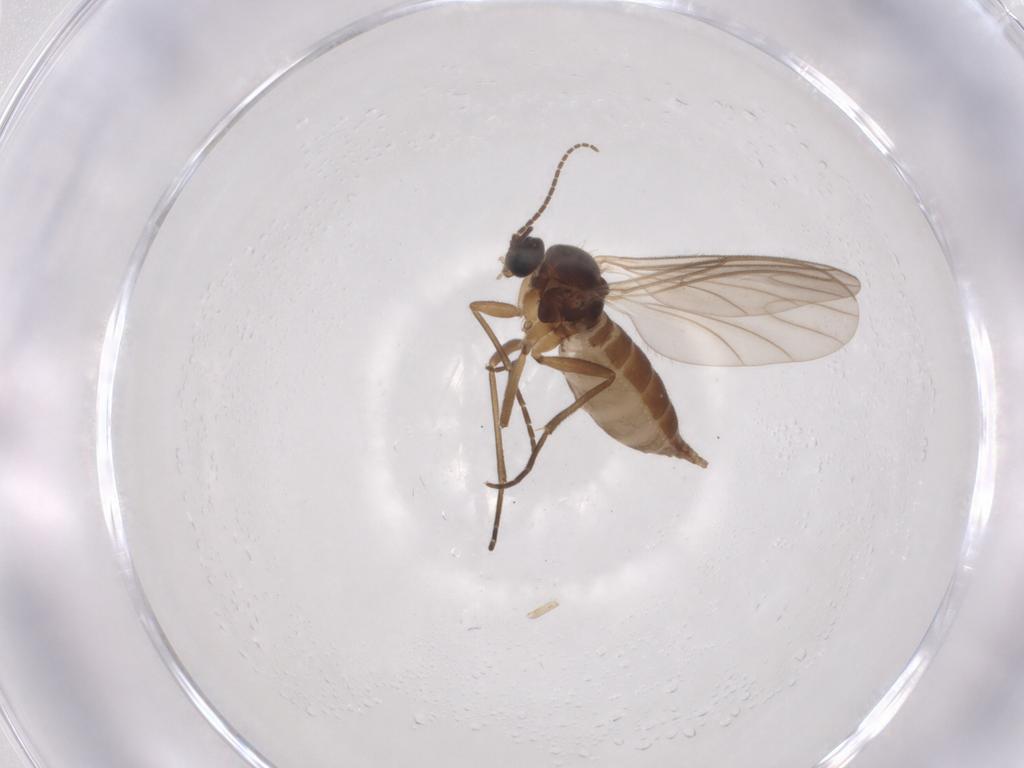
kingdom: Animalia
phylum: Arthropoda
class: Insecta
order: Diptera
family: Sciaridae
